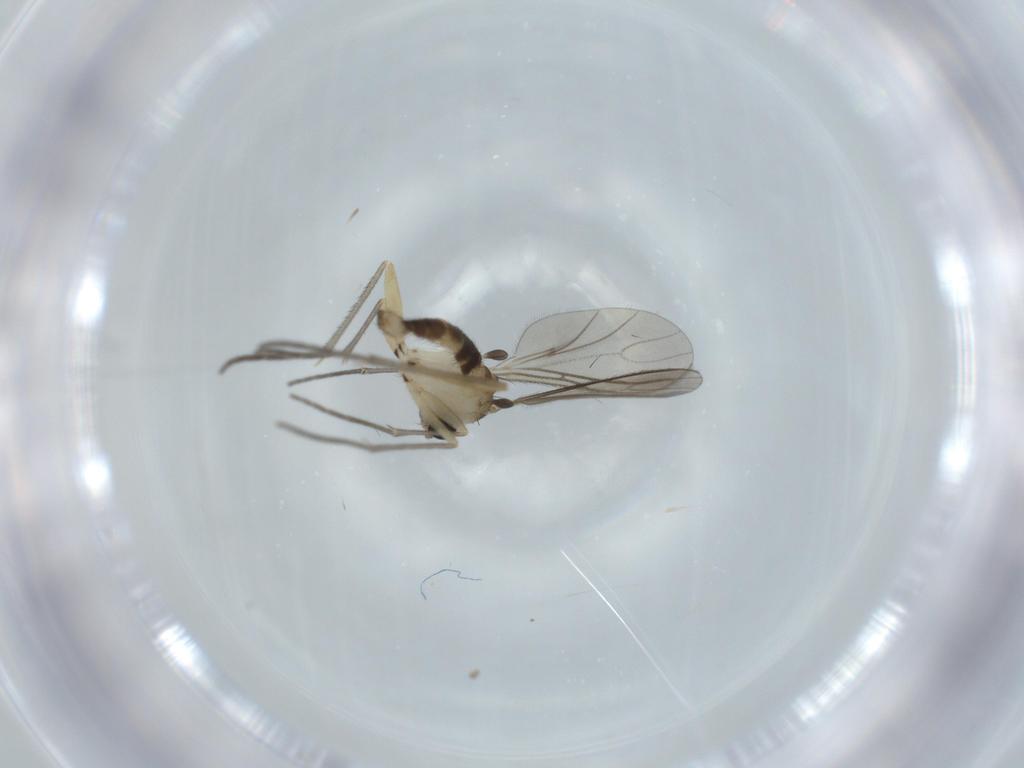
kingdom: Animalia
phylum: Arthropoda
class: Insecta
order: Diptera
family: Sciaridae
